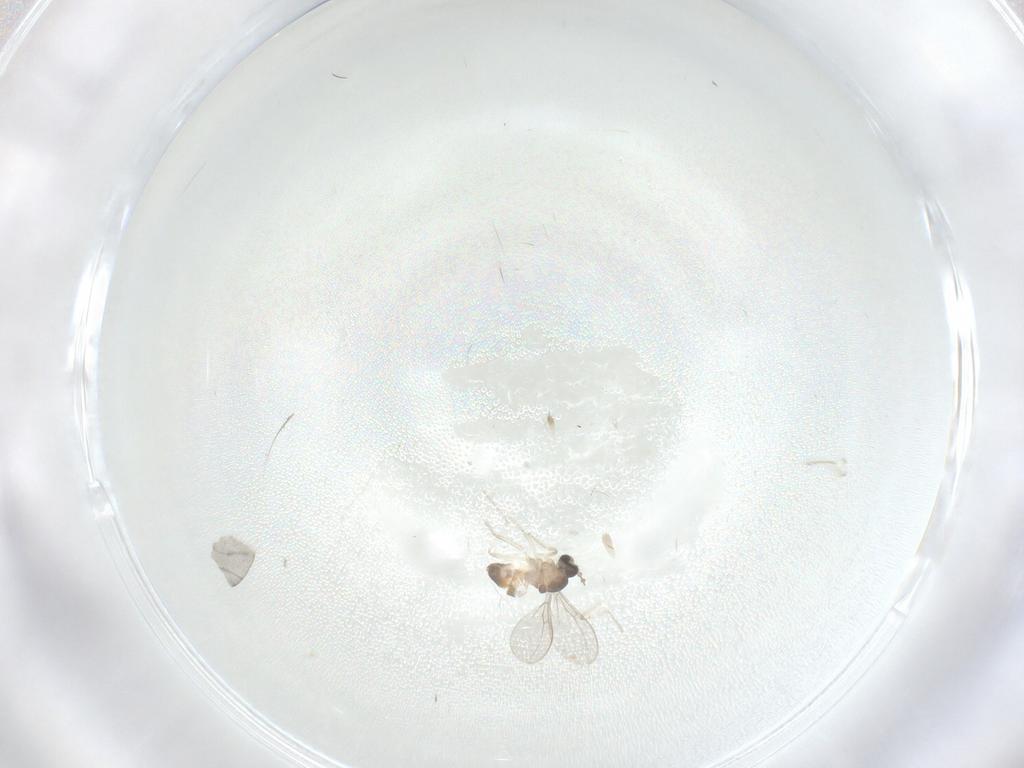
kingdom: Animalia
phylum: Arthropoda
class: Insecta
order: Diptera
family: Cecidomyiidae
